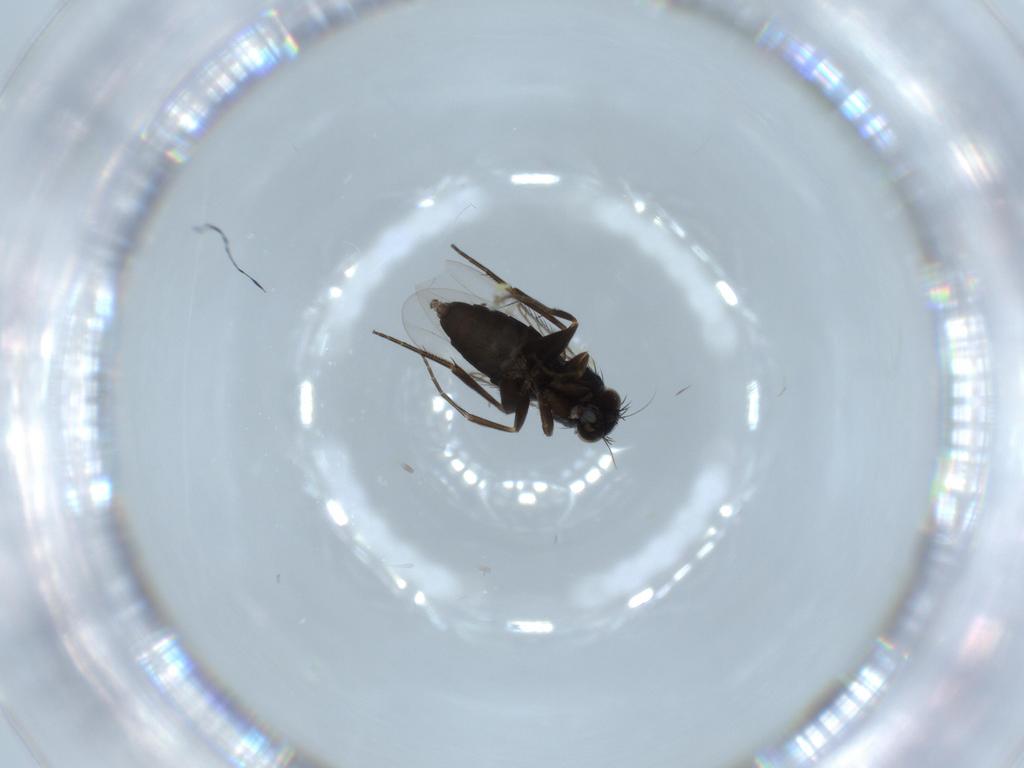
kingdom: Animalia
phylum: Arthropoda
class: Insecta
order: Diptera
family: Phoridae
